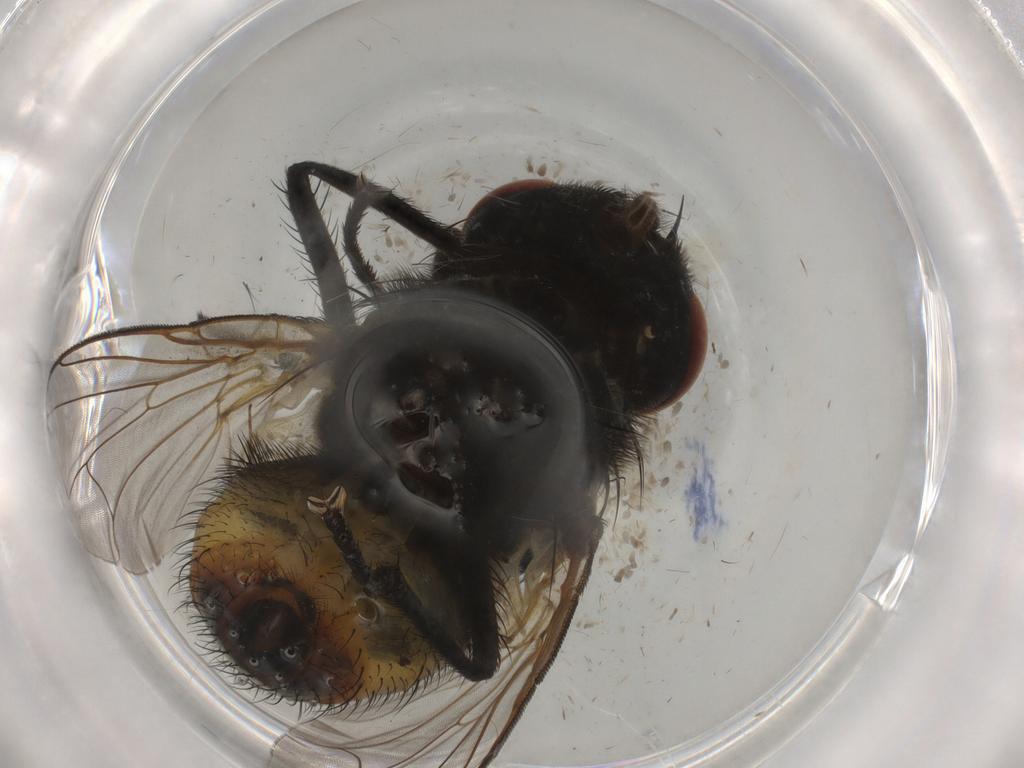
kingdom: Animalia
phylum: Arthropoda
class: Insecta
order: Diptera
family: Muscidae
